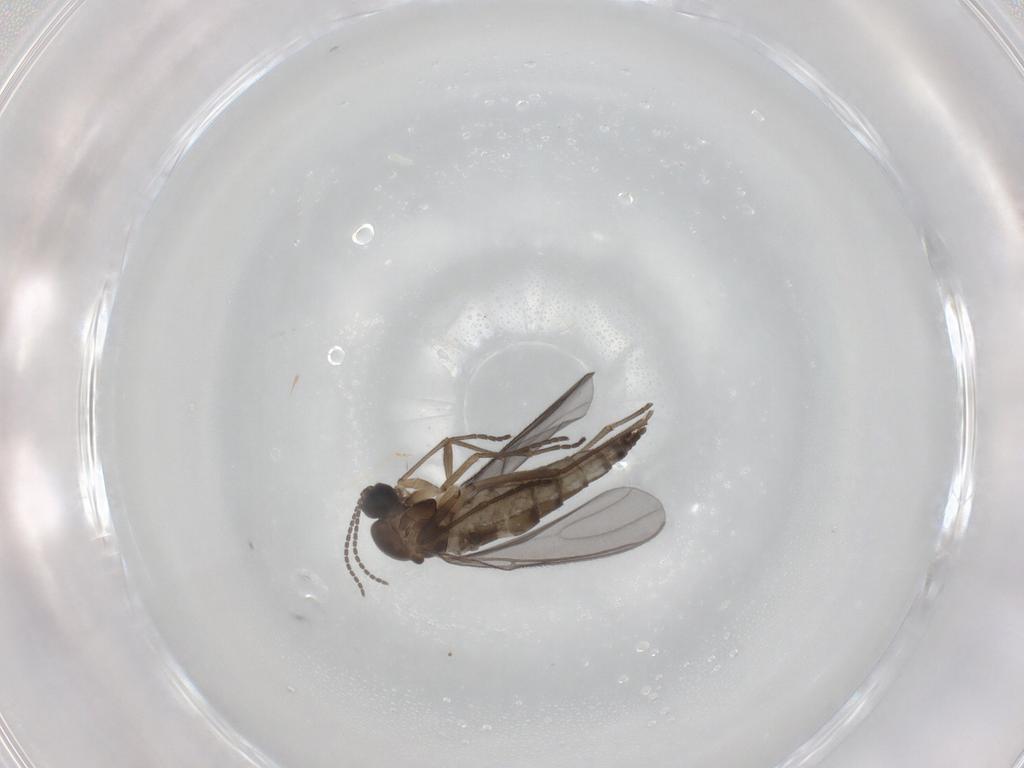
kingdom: Animalia
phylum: Arthropoda
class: Insecta
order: Diptera
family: Sciaridae
